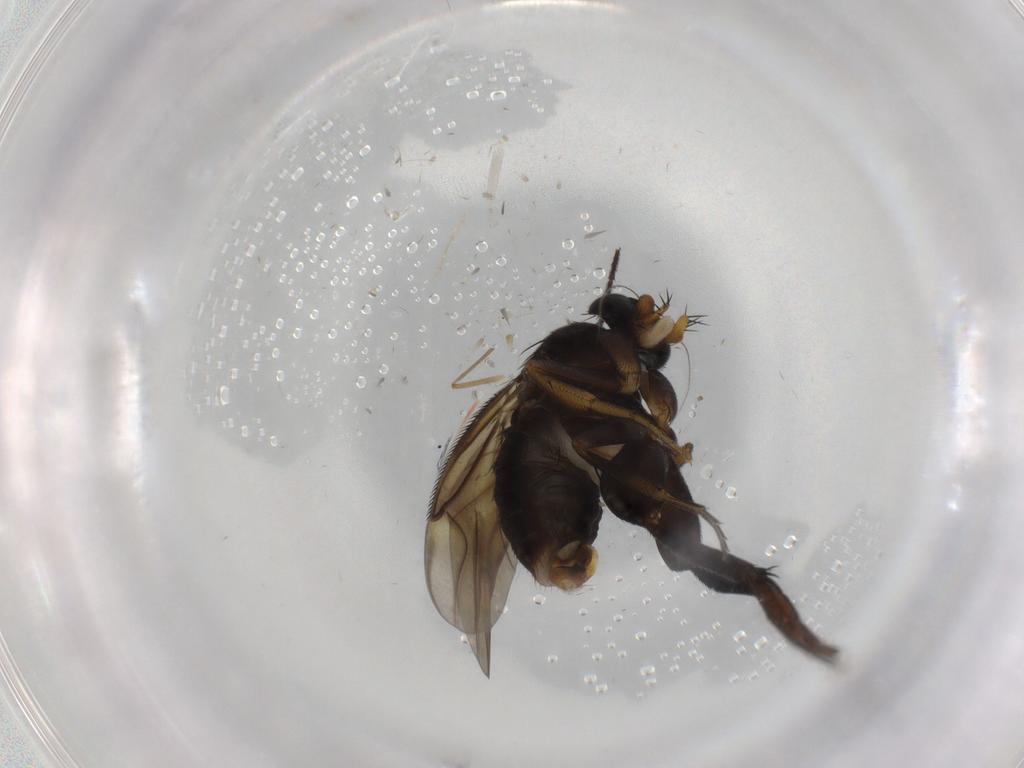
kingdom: Animalia
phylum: Arthropoda
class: Insecta
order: Diptera
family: Phoridae
